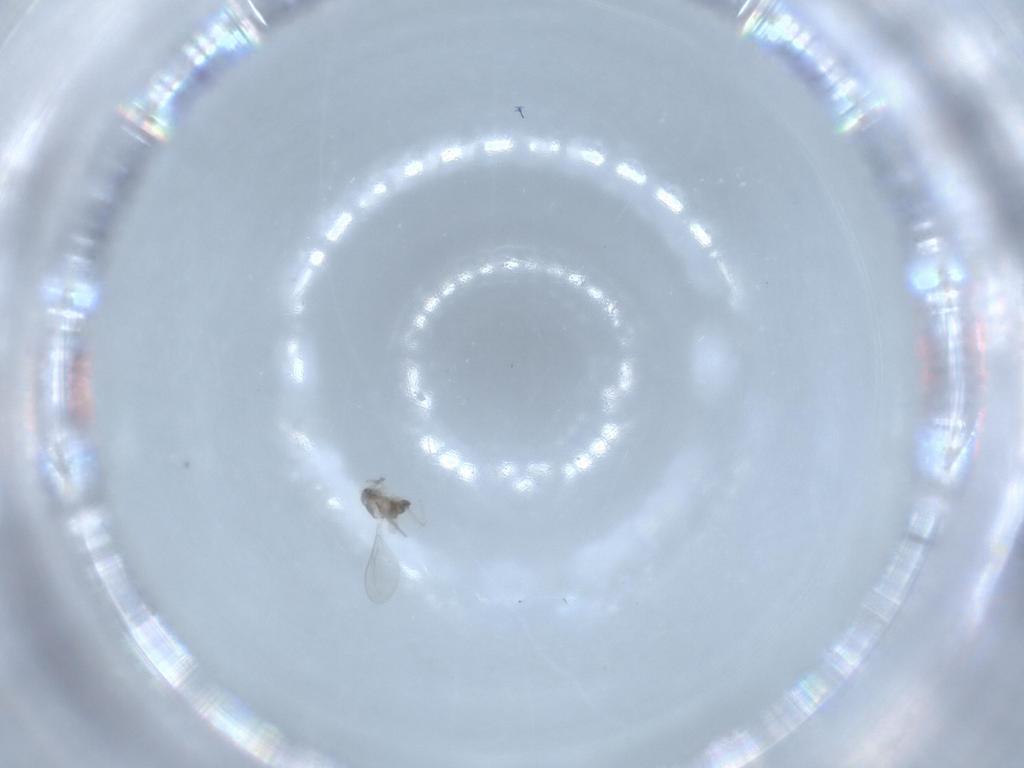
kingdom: Animalia
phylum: Arthropoda
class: Insecta
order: Diptera
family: Cecidomyiidae
